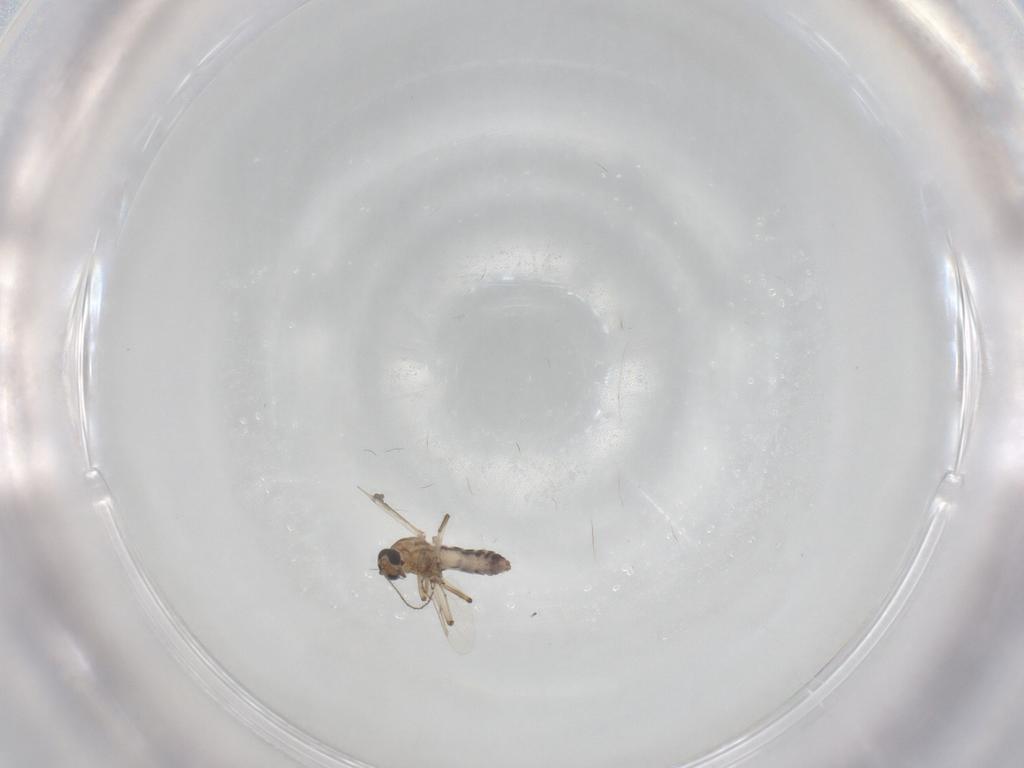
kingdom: Animalia
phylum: Arthropoda
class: Insecta
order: Diptera
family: Ceratopogonidae
